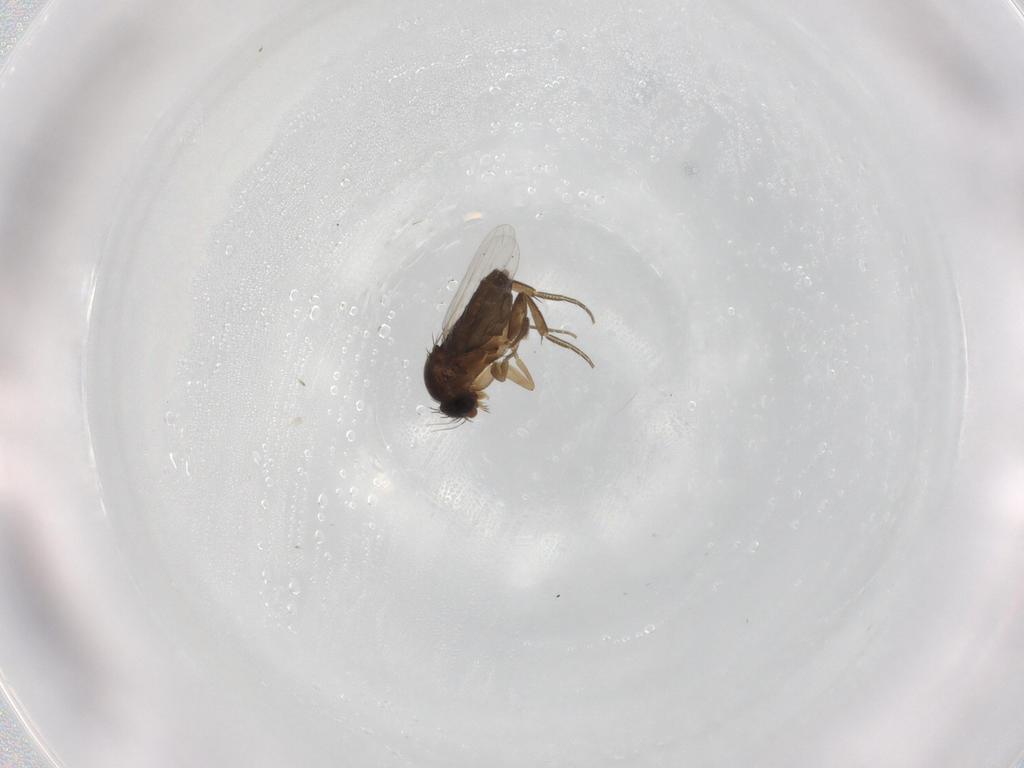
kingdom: Animalia
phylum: Arthropoda
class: Insecta
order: Diptera
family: Phoridae
